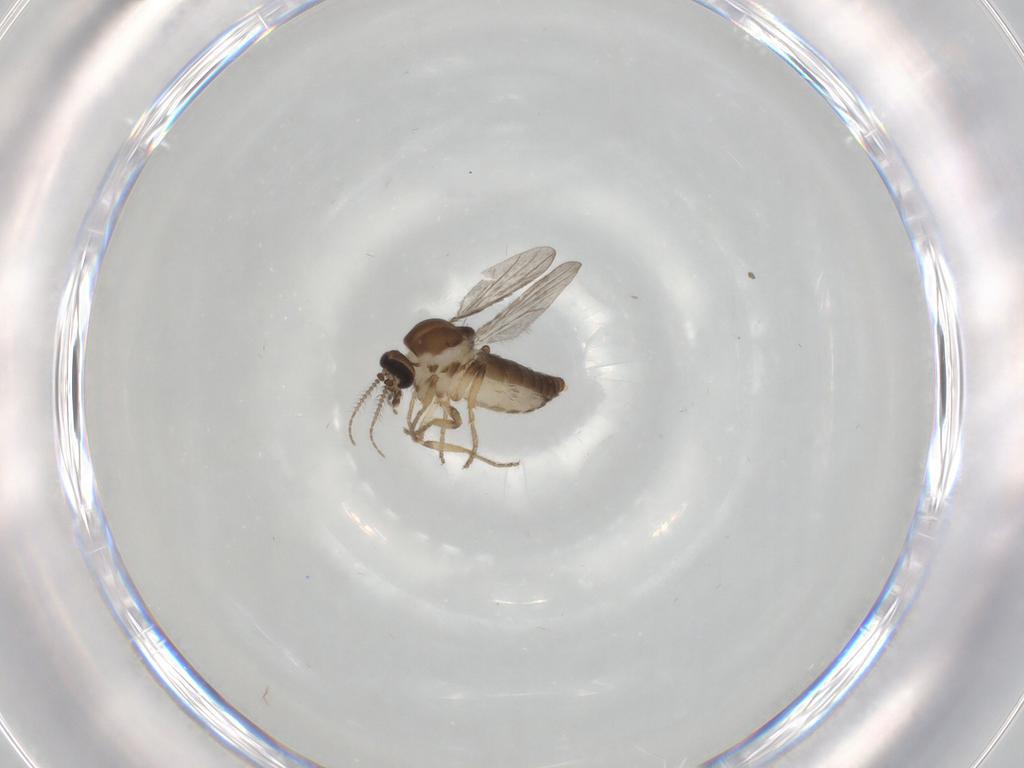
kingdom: Animalia
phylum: Arthropoda
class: Insecta
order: Diptera
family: Ceratopogonidae
